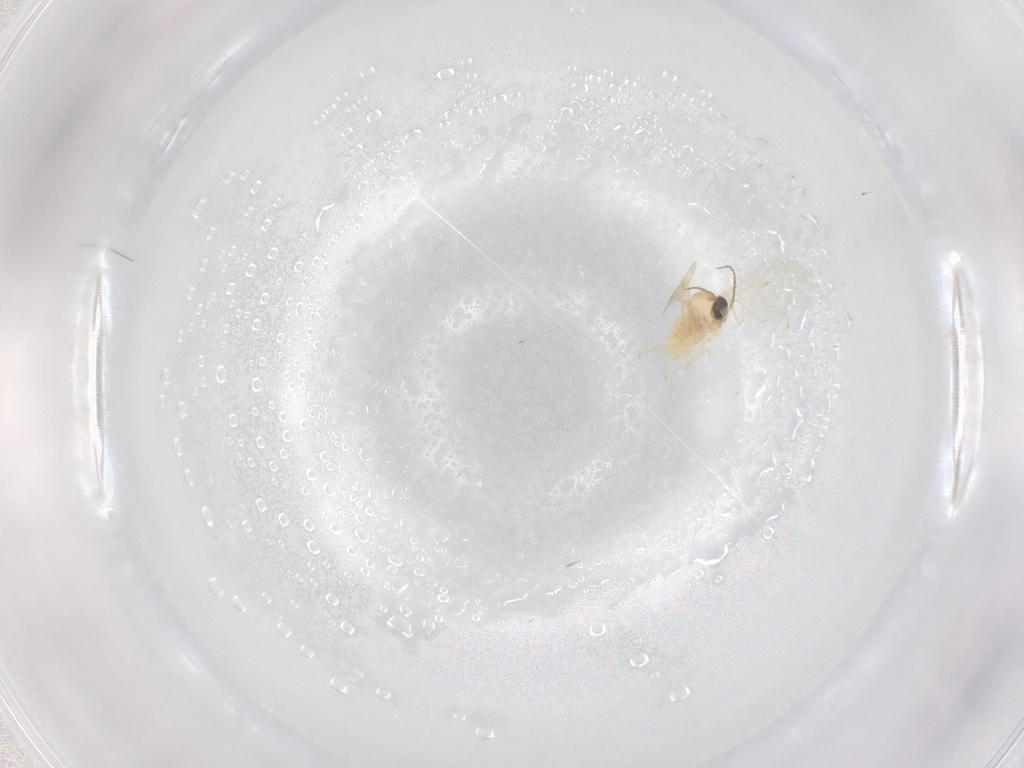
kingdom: Animalia
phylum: Arthropoda
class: Insecta
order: Diptera
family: Cecidomyiidae
